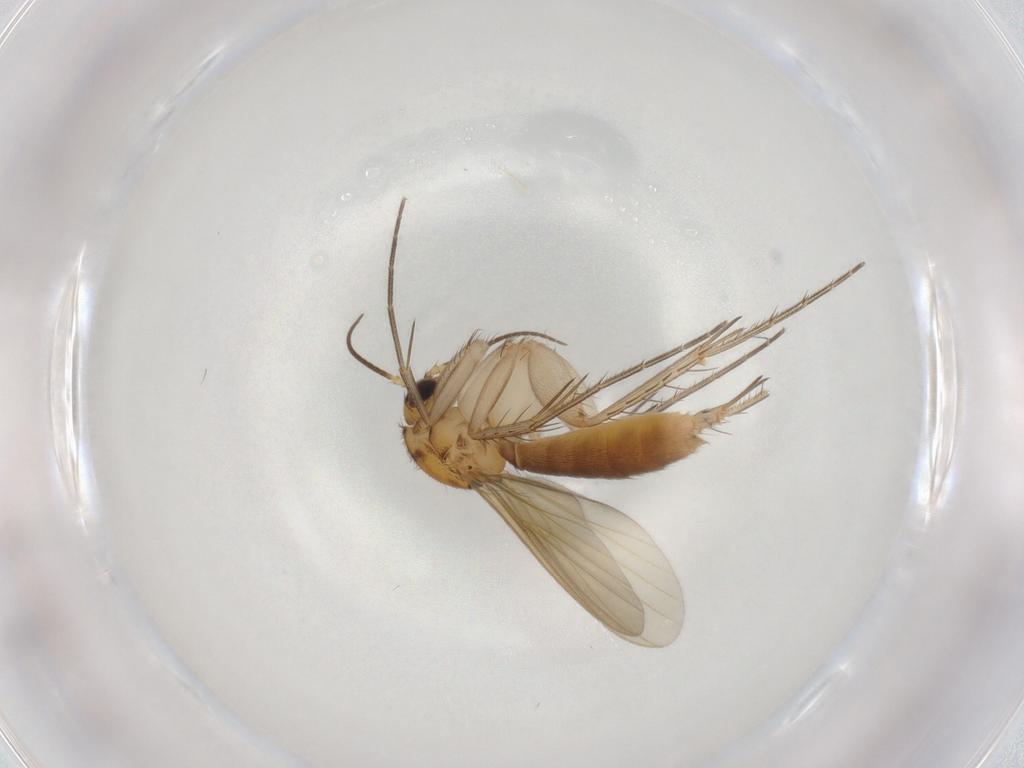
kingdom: Animalia
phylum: Arthropoda
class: Insecta
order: Diptera
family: Mycetophilidae
